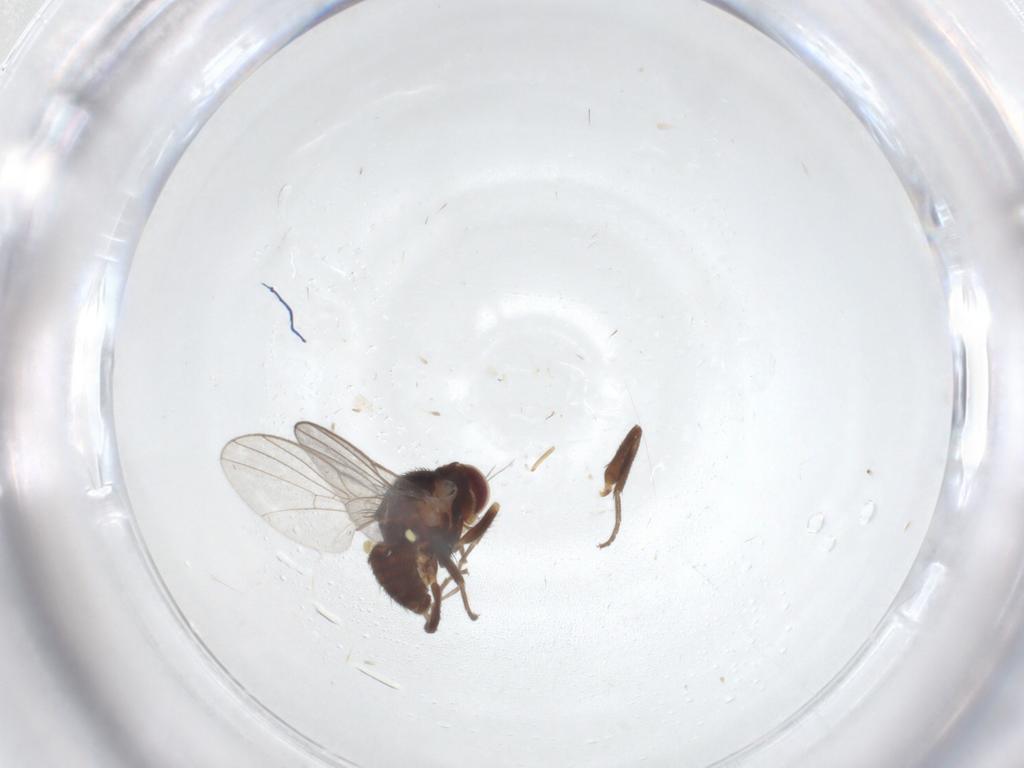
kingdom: Animalia
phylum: Arthropoda
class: Insecta
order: Diptera
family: Agromyzidae
